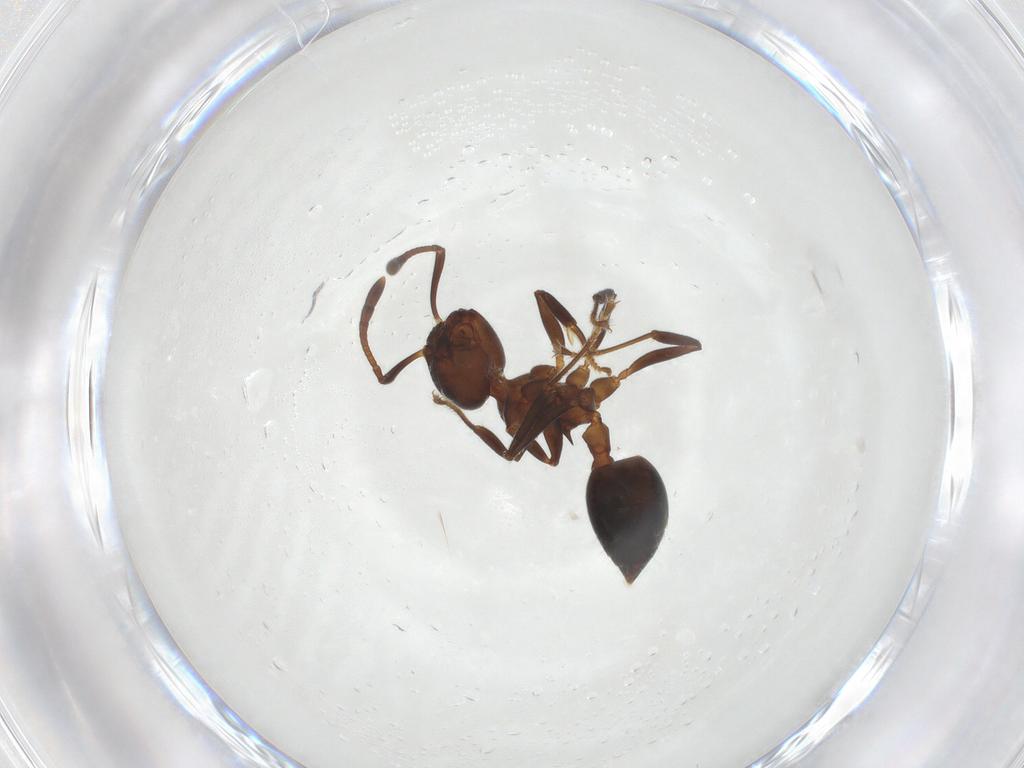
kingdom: Animalia
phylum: Arthropoda
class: Insecta
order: Hymenoptera
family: Formicidae
